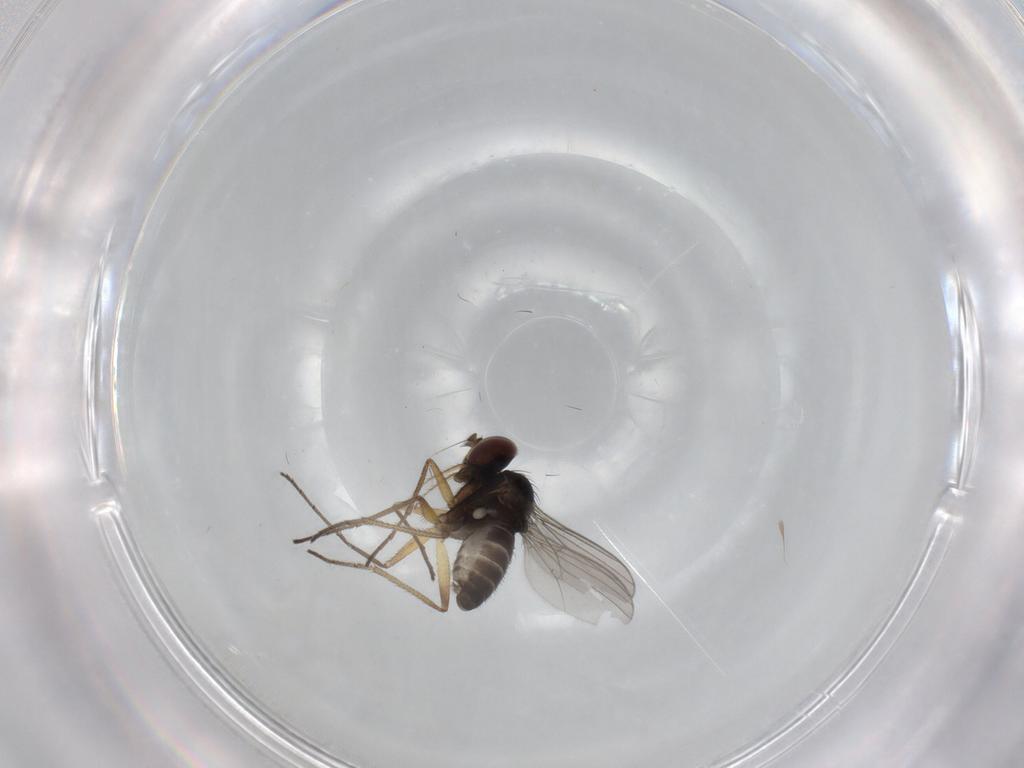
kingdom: Animalia
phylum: Arthropoda
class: Insecta
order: Diptera
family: Dolichopodidae
